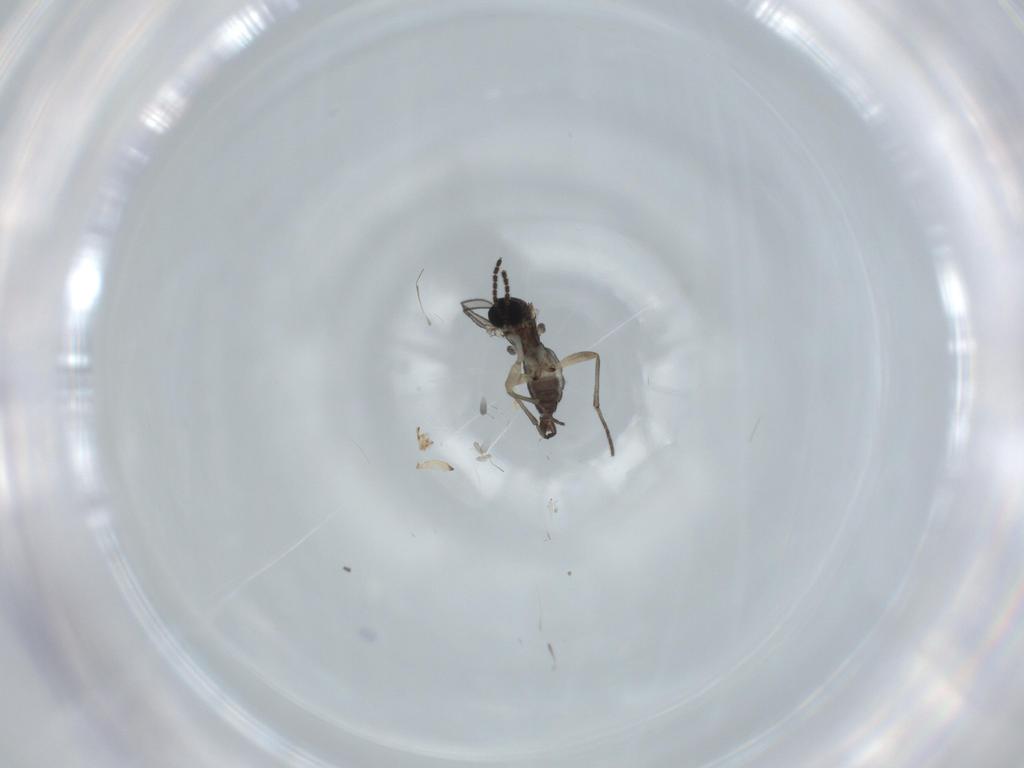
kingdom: Animalia
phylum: Arthropoda
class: Insecta
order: Diptera
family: Sciaridae
